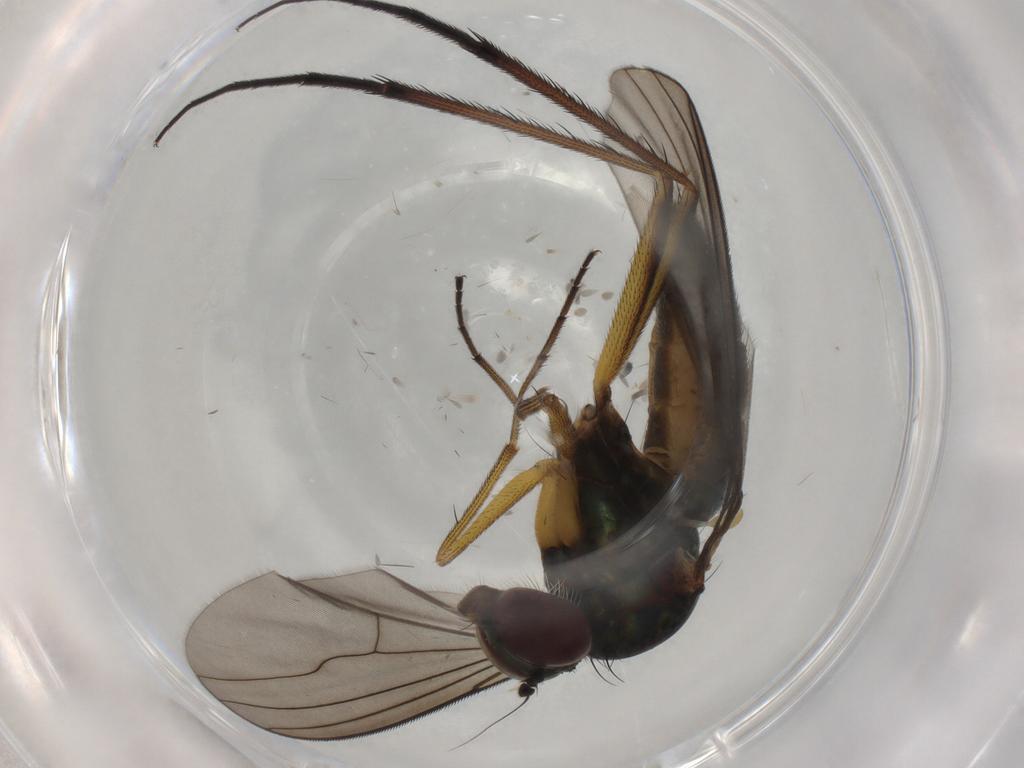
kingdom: Animalia
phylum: Arthropoda
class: Insecta
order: Diptera
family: Dolichopodidae
